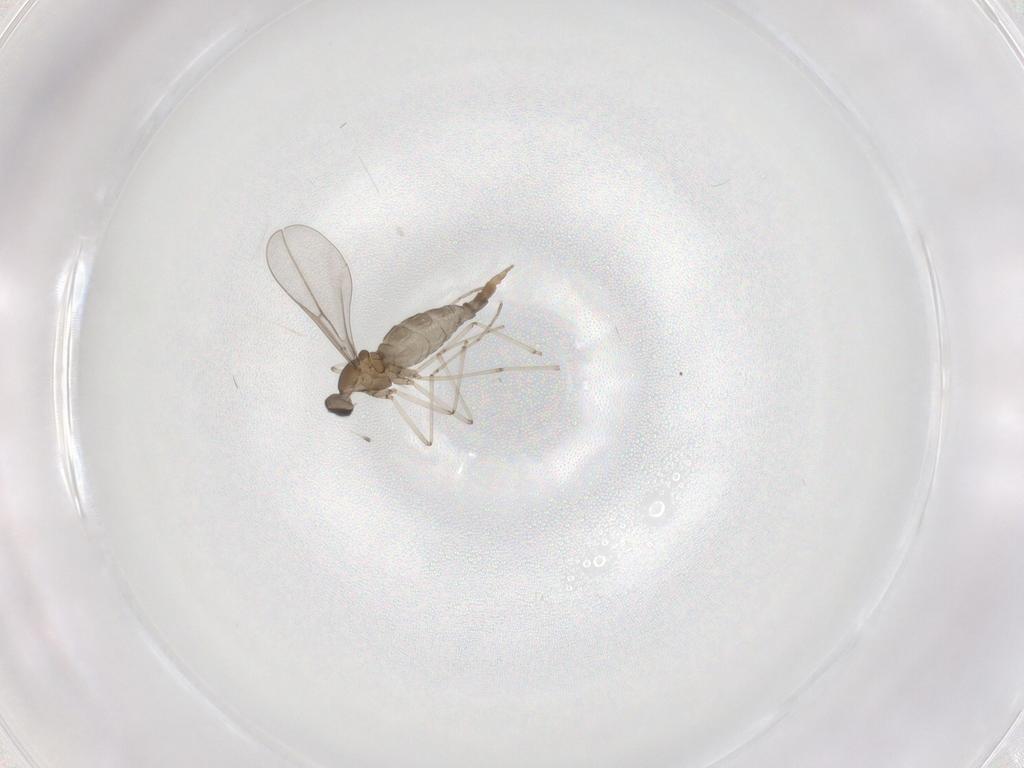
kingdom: Animalia
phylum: Arthropoda
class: Insecta
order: Diptera
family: Cecidomyiidae
